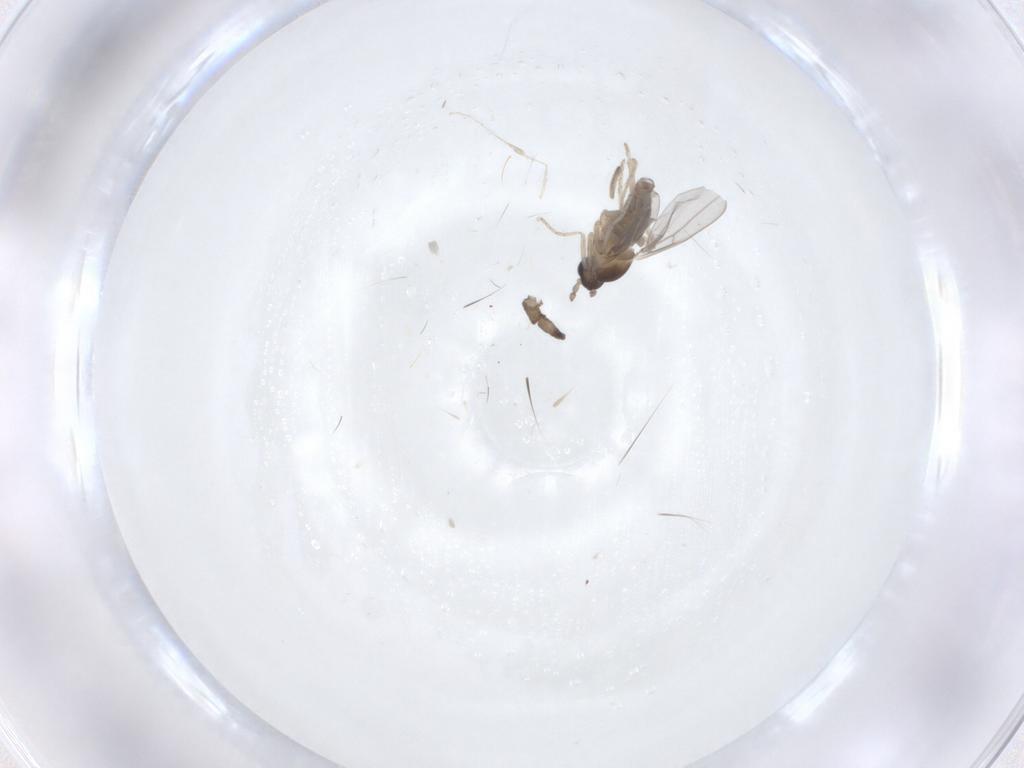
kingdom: Animalia
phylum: Arthropoda
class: Insecta
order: Diptera
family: Cecidomyiidae
